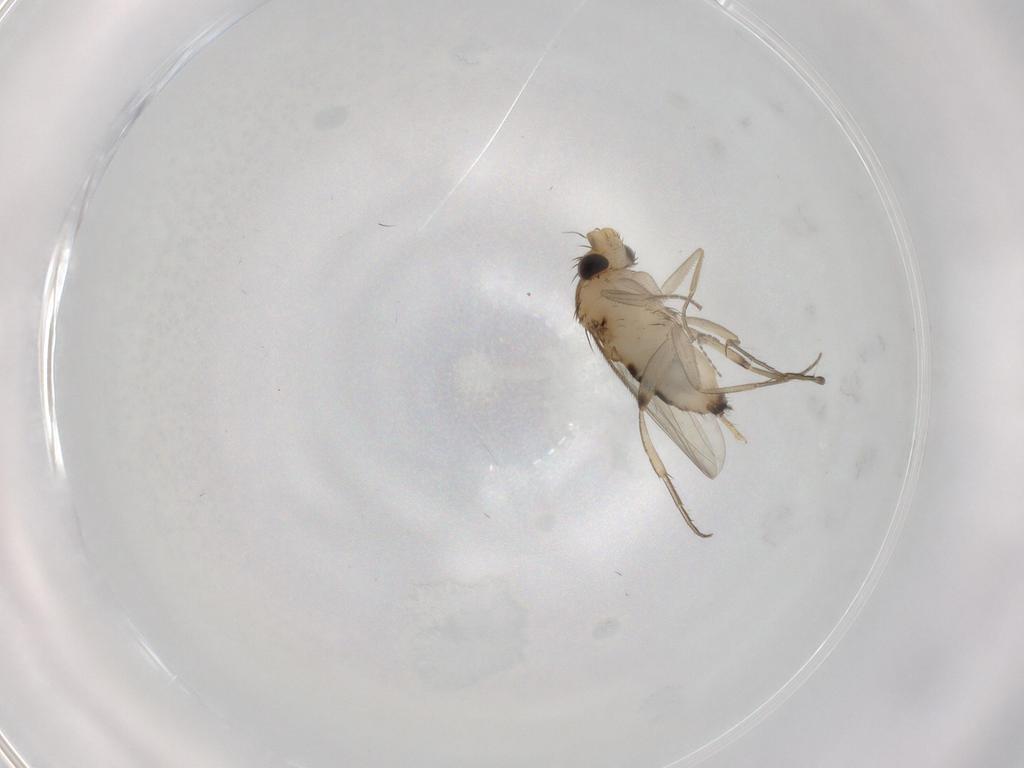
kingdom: Animalia
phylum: Arthropoda
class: Insecta
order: Diptera
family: Phoridae
